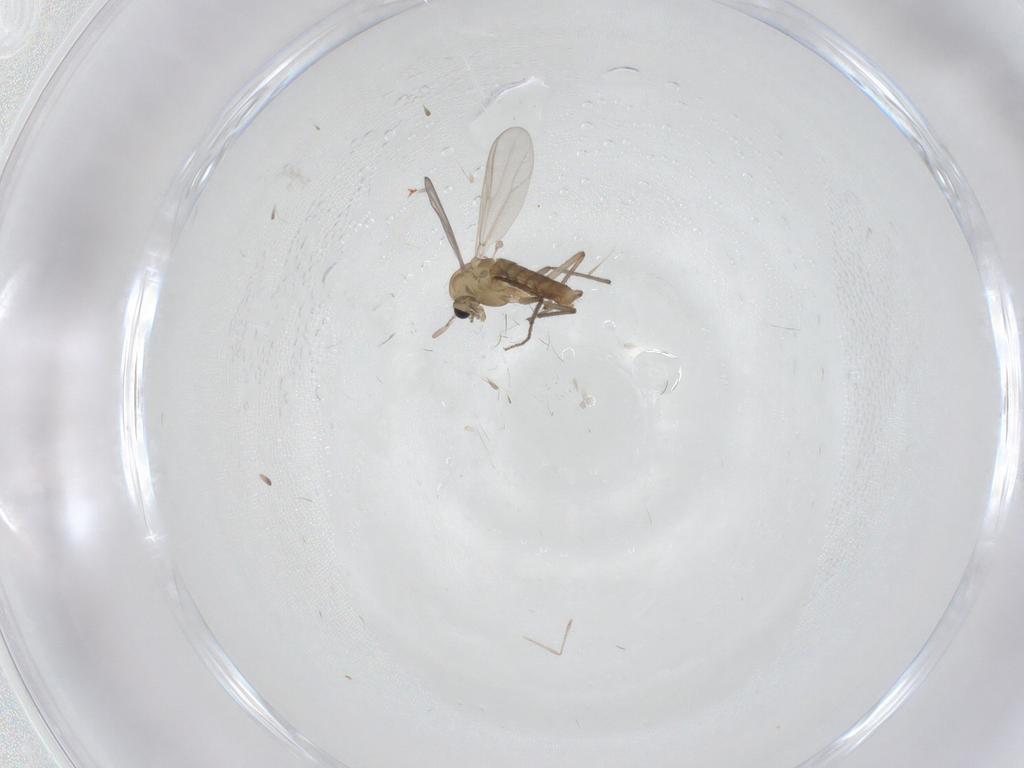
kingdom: Animalia
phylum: Arthropoda
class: Insecta
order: Diptera
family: Chironomidae
